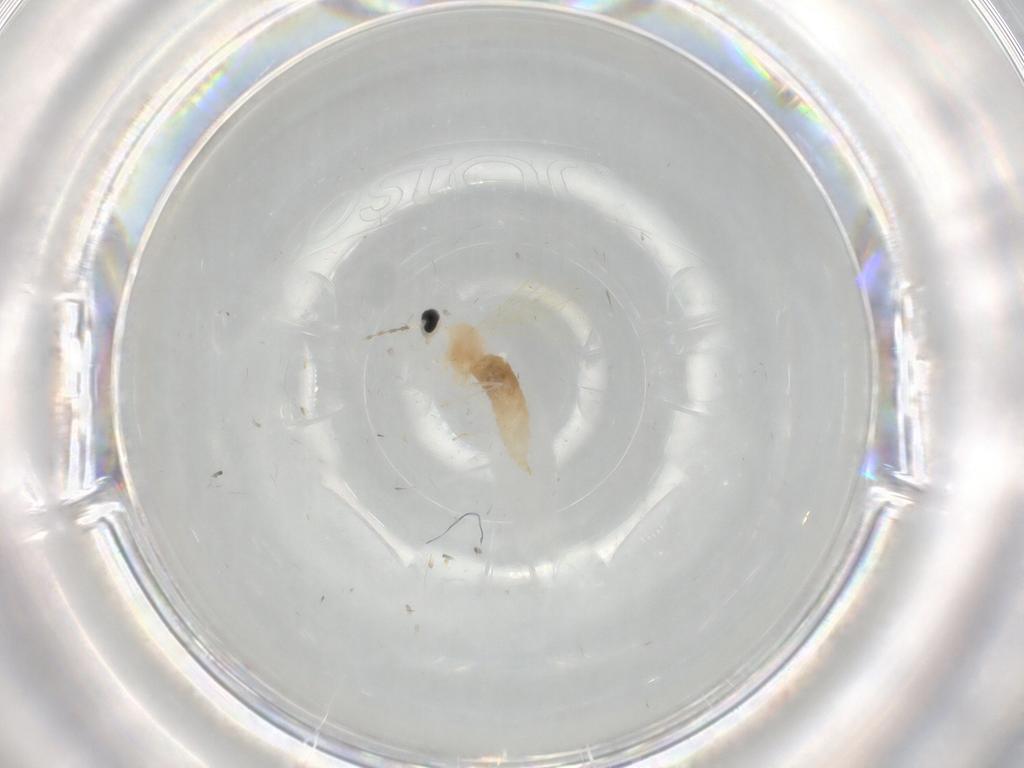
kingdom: Animalia
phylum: Arthropoda
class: Insecta
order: Diptera
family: Cecidomyiidae
